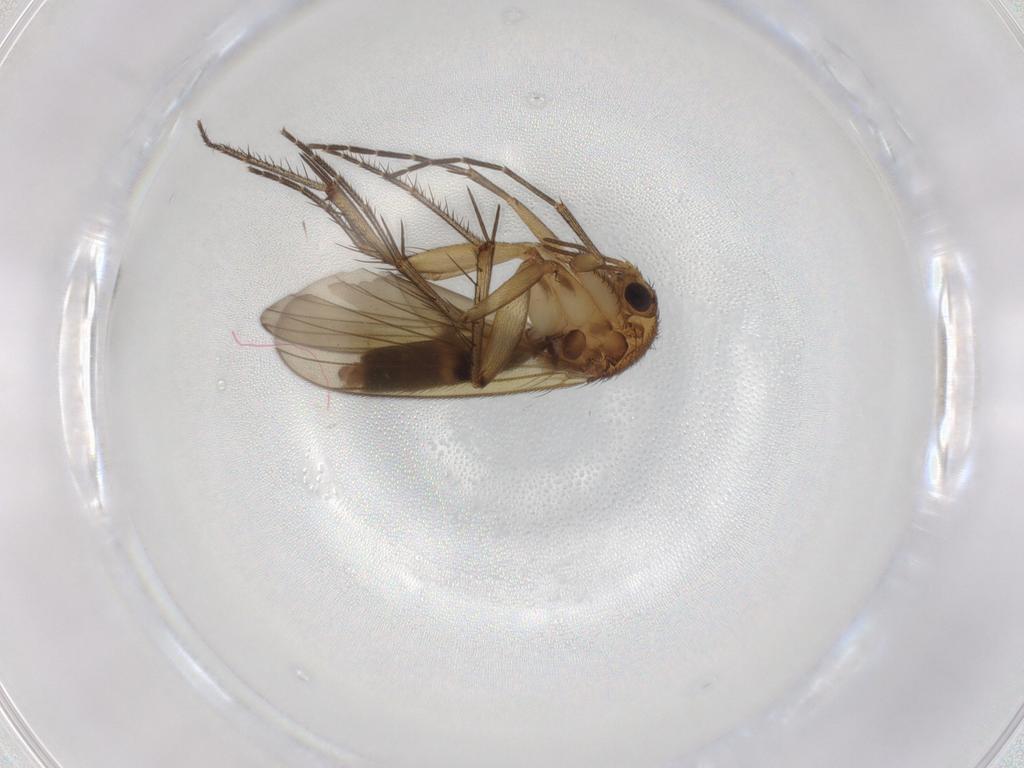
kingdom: Animalia
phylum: Arthropoda
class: Insecta
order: Diptera
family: Chironomidae
